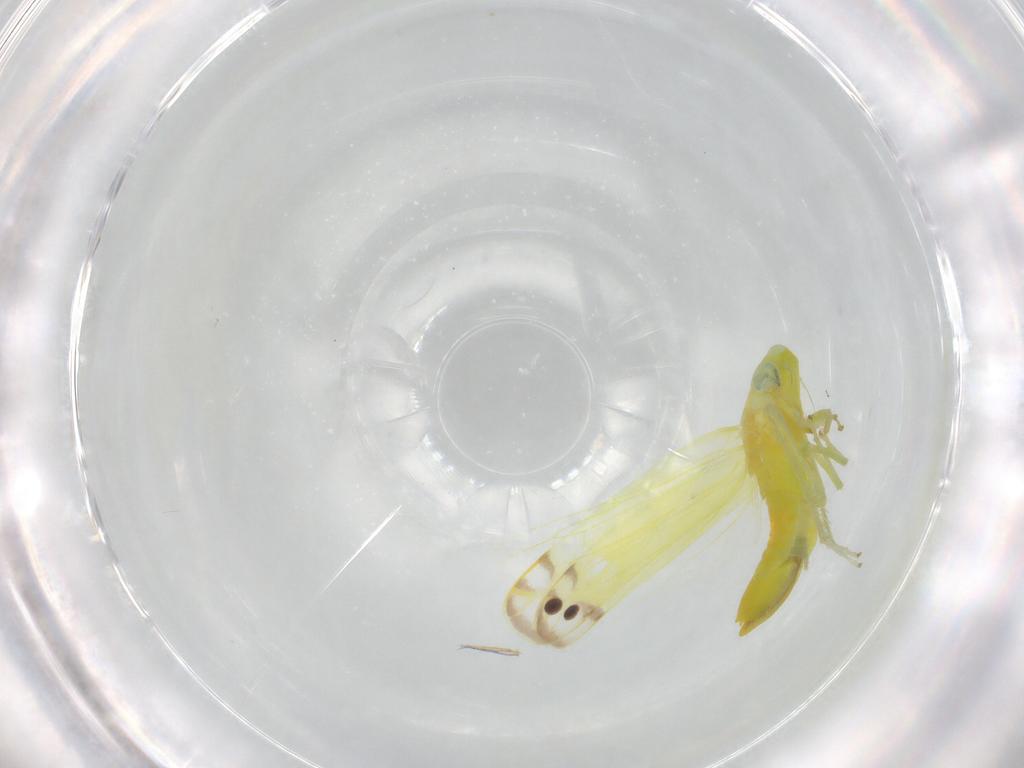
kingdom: Animalia
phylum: Arthropoda
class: Insecta
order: Hemiptera
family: Cicadellidae
